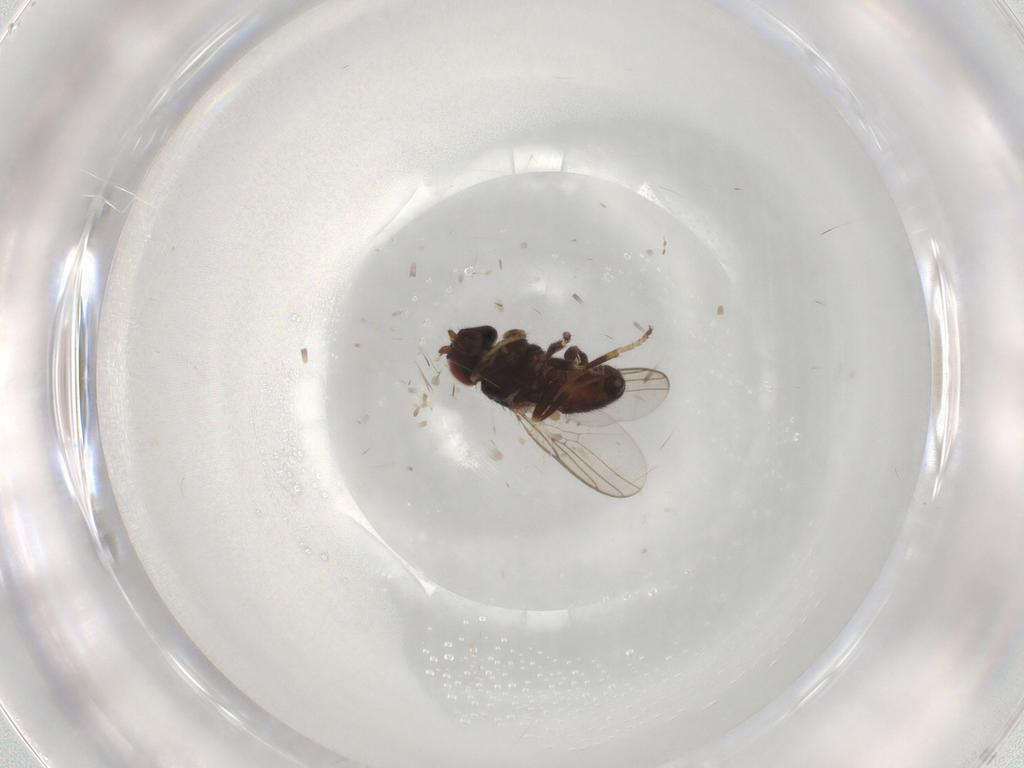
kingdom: Animalia
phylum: Arthropoda
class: Insecta
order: Diptera
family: Chloropidae
